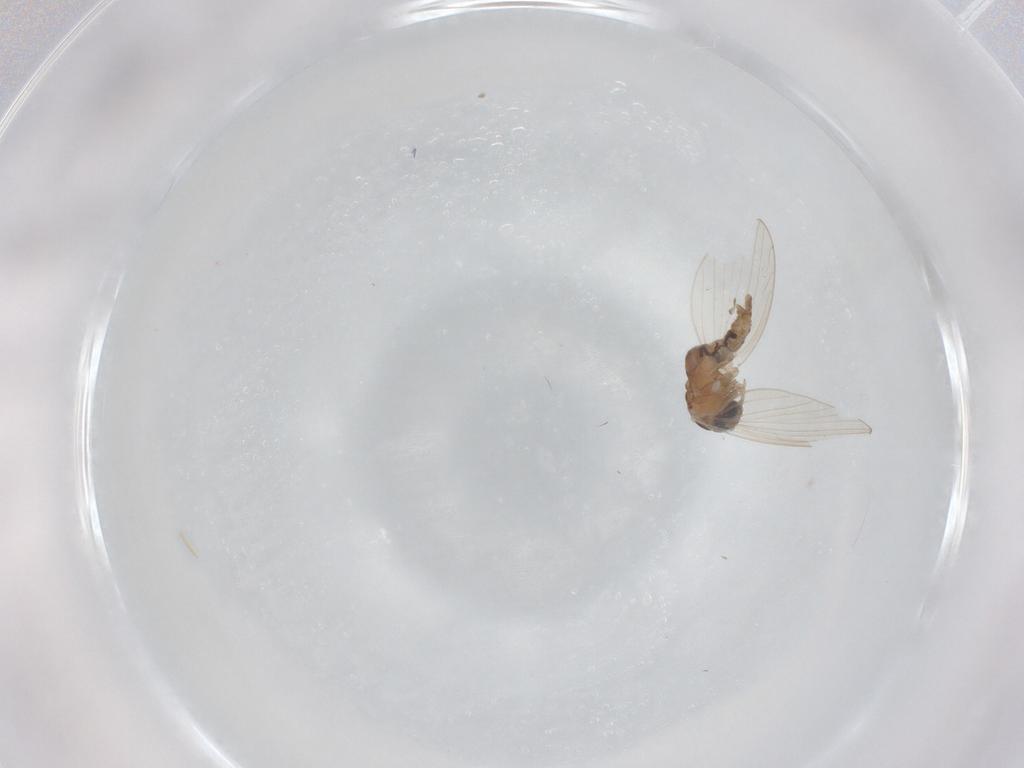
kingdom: Animalia
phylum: Arthropoda
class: Insecta
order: Diptera
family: Psychodidae
